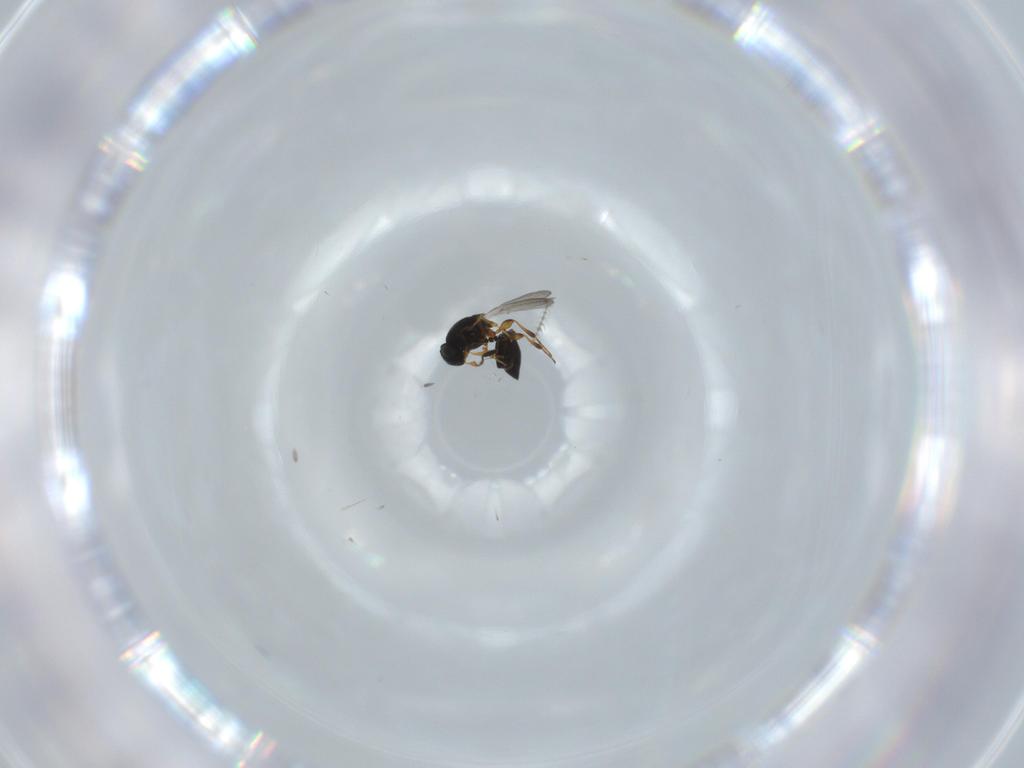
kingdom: Animalia
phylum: Arthropoda
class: Insecta
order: Hymenoptera
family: Platygastridae
